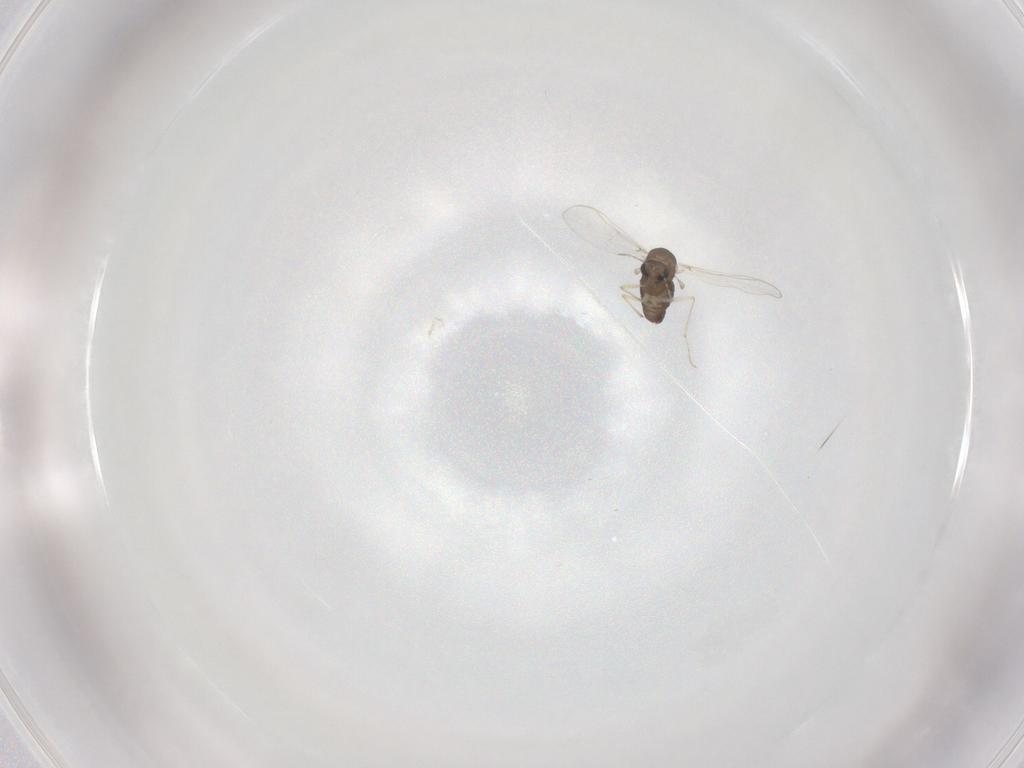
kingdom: Animalia
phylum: Arthropoda
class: Insecta
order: Diptera
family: Chironomidae
